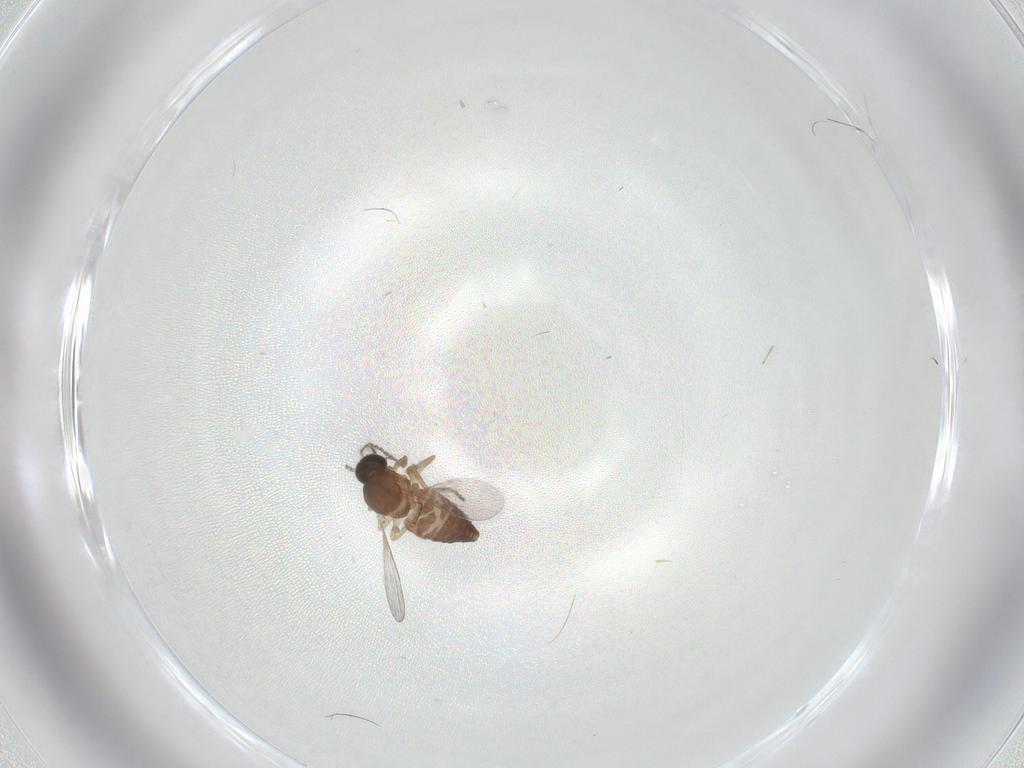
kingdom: Animalia
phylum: Arthropoda
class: Insecta
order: Diptera
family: Ceratopogonidae
